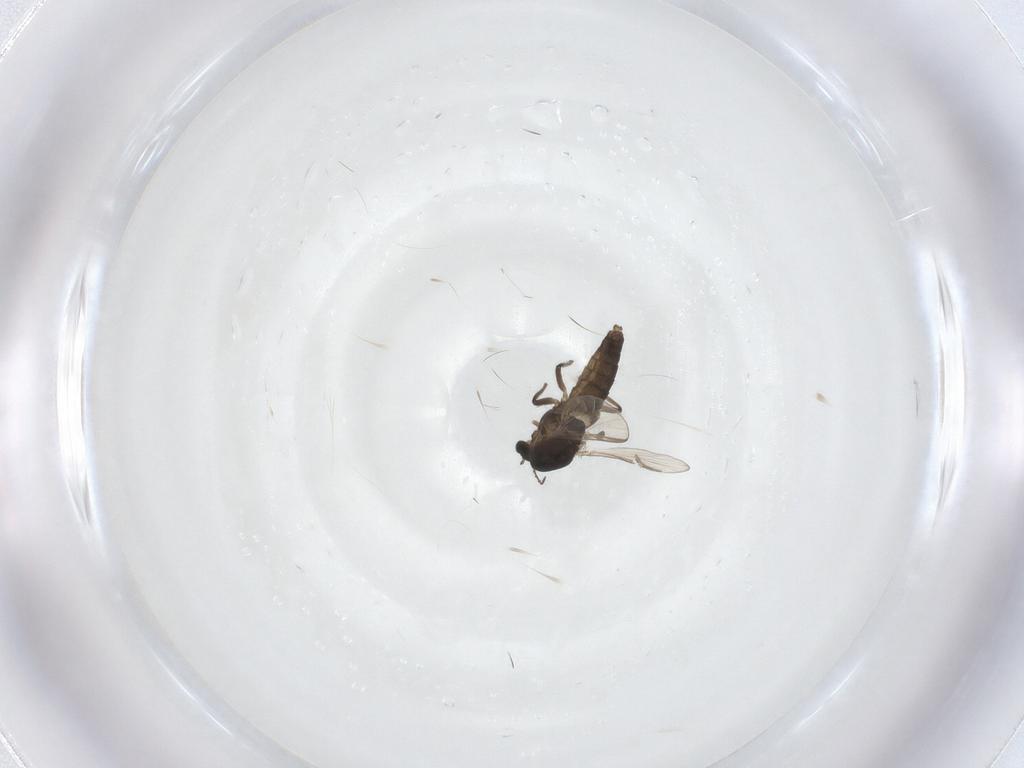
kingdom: Animalia
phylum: Arthropoda
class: Insecta
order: Diptera
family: Chironomidae
